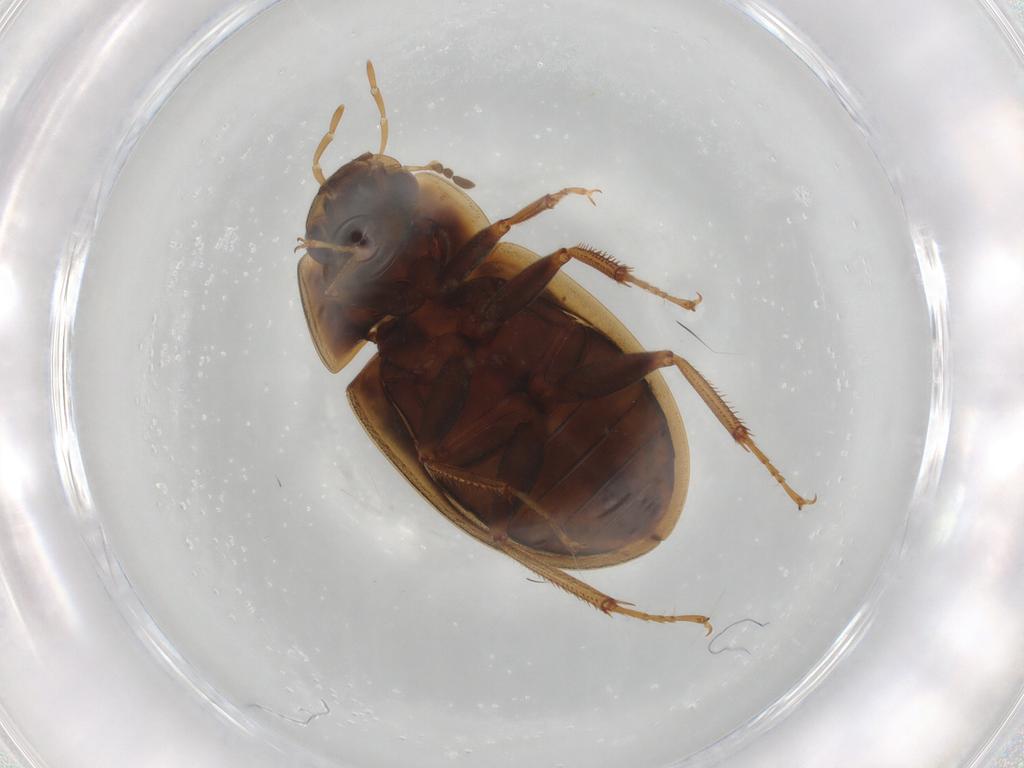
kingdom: Animalia
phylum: Arthropoda
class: Insecta
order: Coleoptera
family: Hydrophilidae
